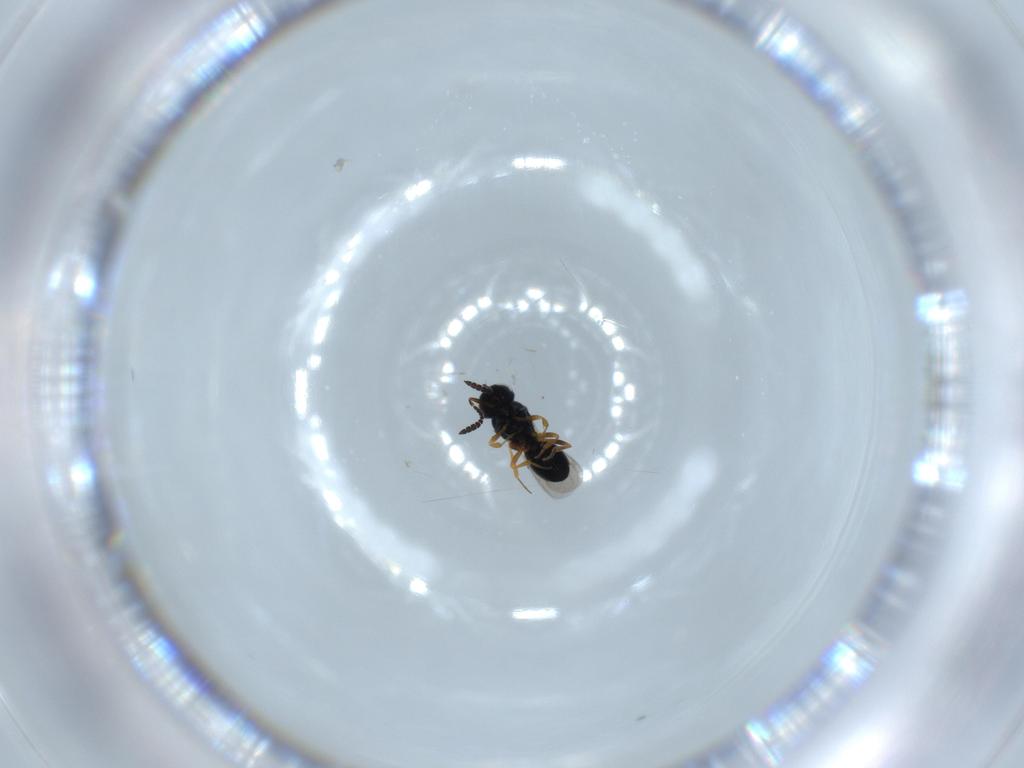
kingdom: Animalia
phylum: Arthropoda
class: Insecta
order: Hymenoptera
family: Scelionidae
